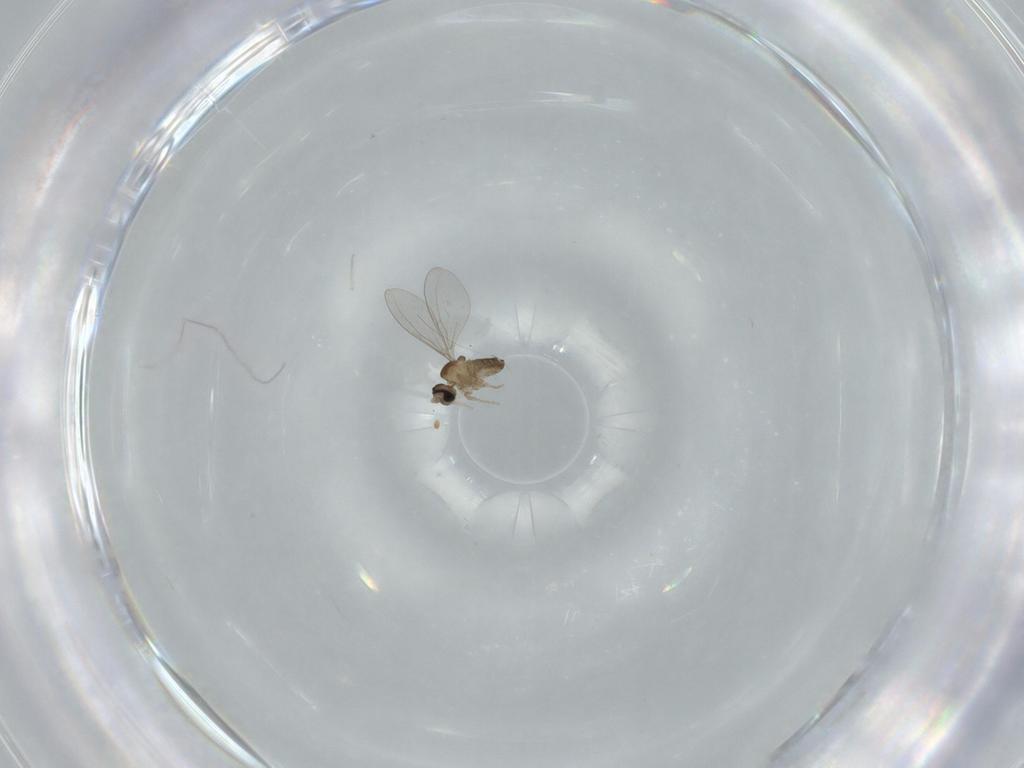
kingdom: Animalia
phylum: Arthropoda
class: Insecta
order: Diptera
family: Cecidomyiidae
